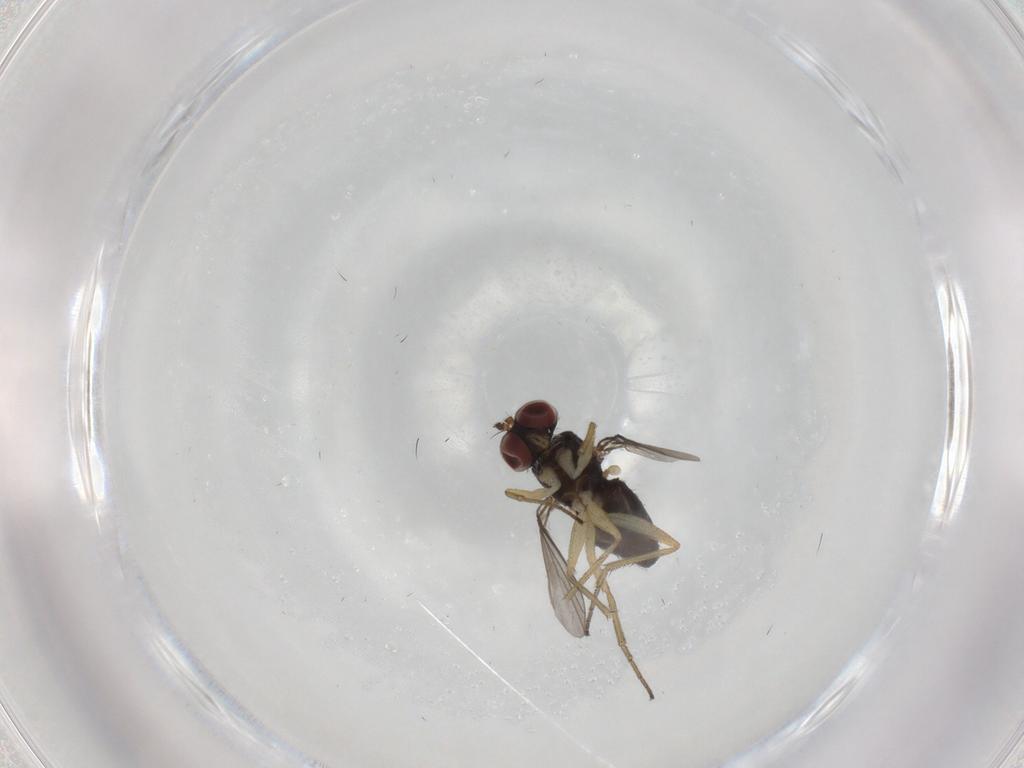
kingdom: Animalia
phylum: Arthropoda
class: Insecta
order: Diptera
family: Dolichopodidae
